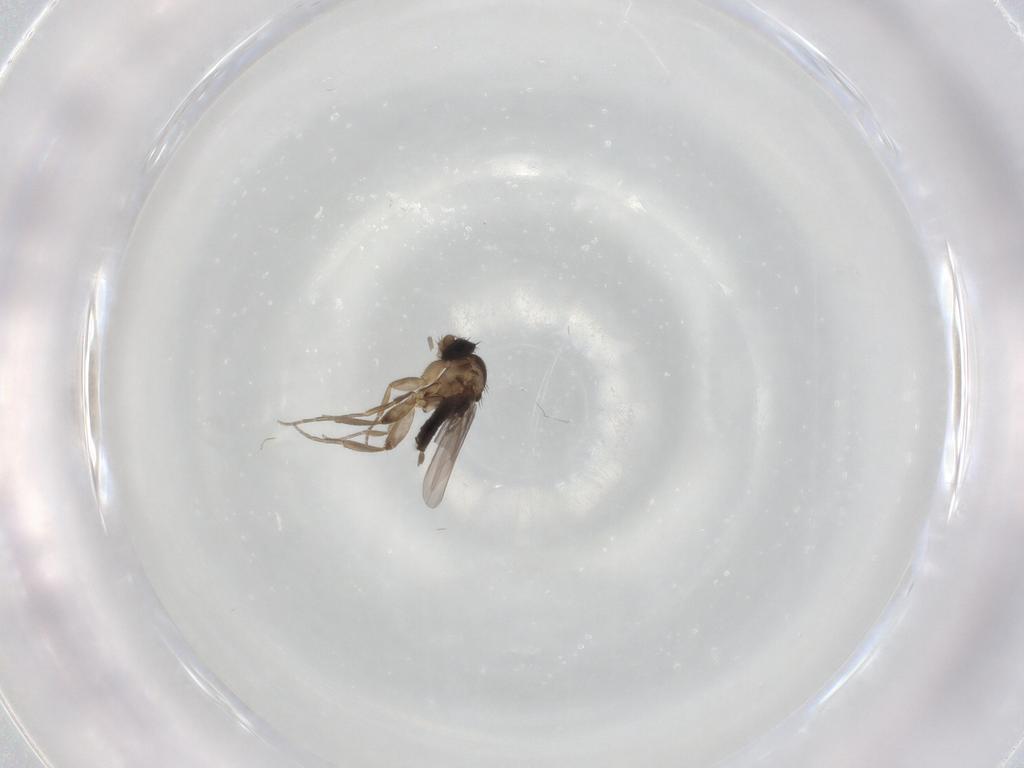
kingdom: Animalia
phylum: Arthropoda
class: Insecta
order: Diptera
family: Phoridae
